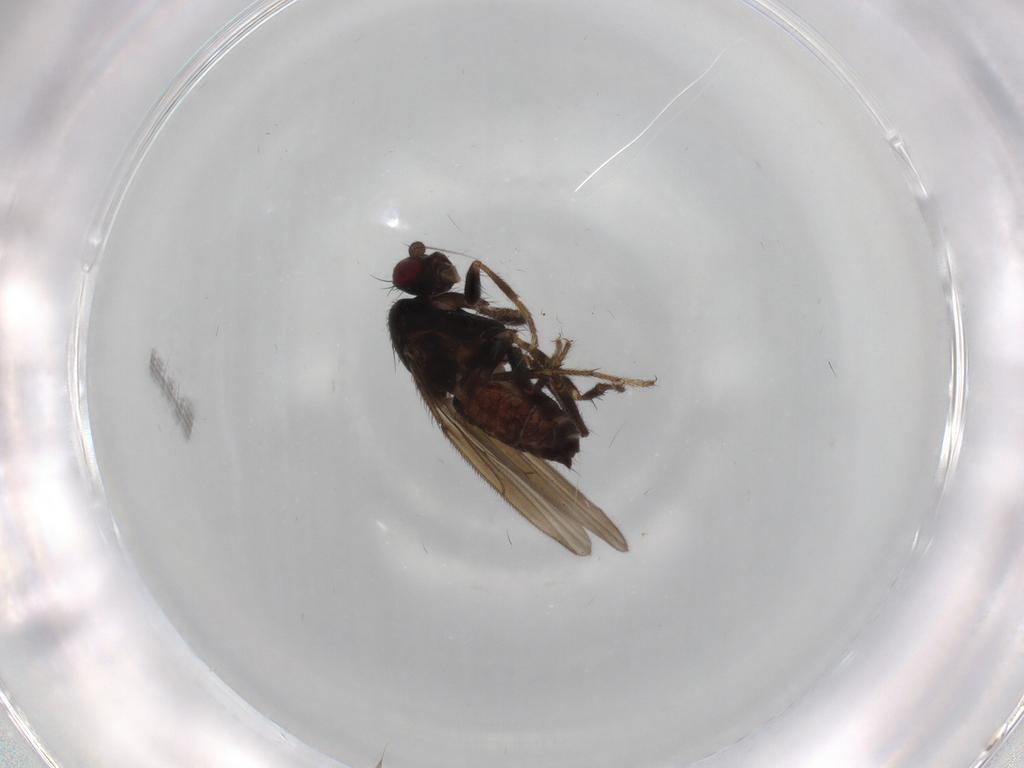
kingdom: Animalia
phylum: Arthropoda
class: Insecta
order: Diptera
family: Sphaeroceridae
